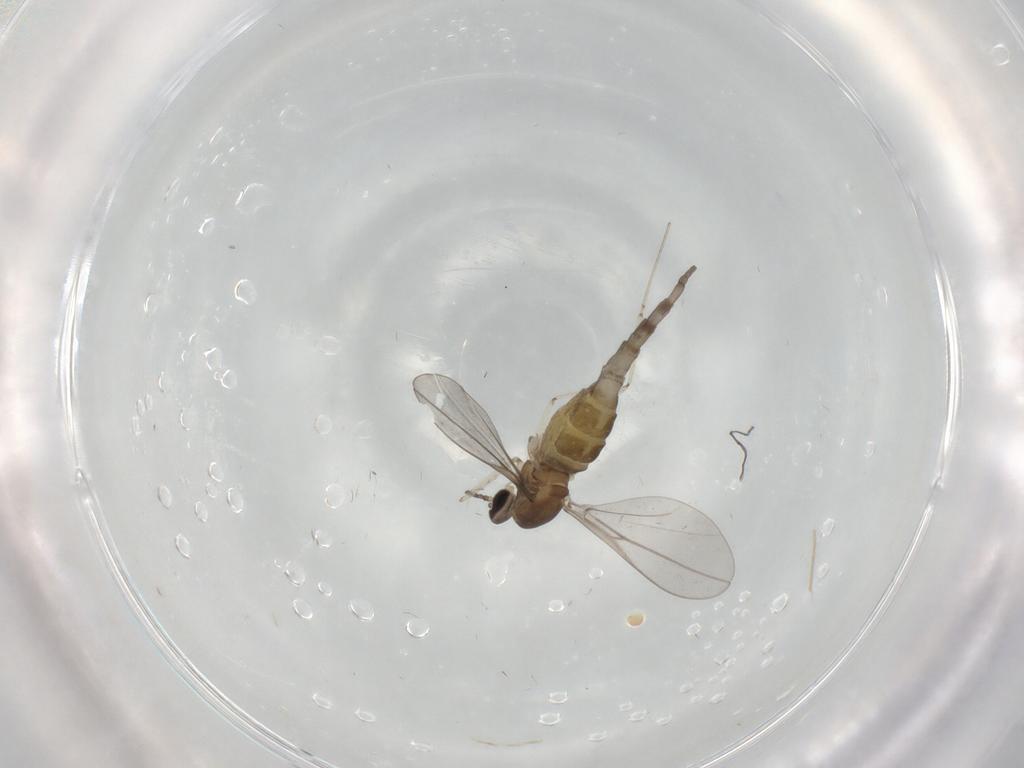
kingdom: Animalia
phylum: Arthropoda
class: Insecta
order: Diptera
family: Cecidomyiidae
